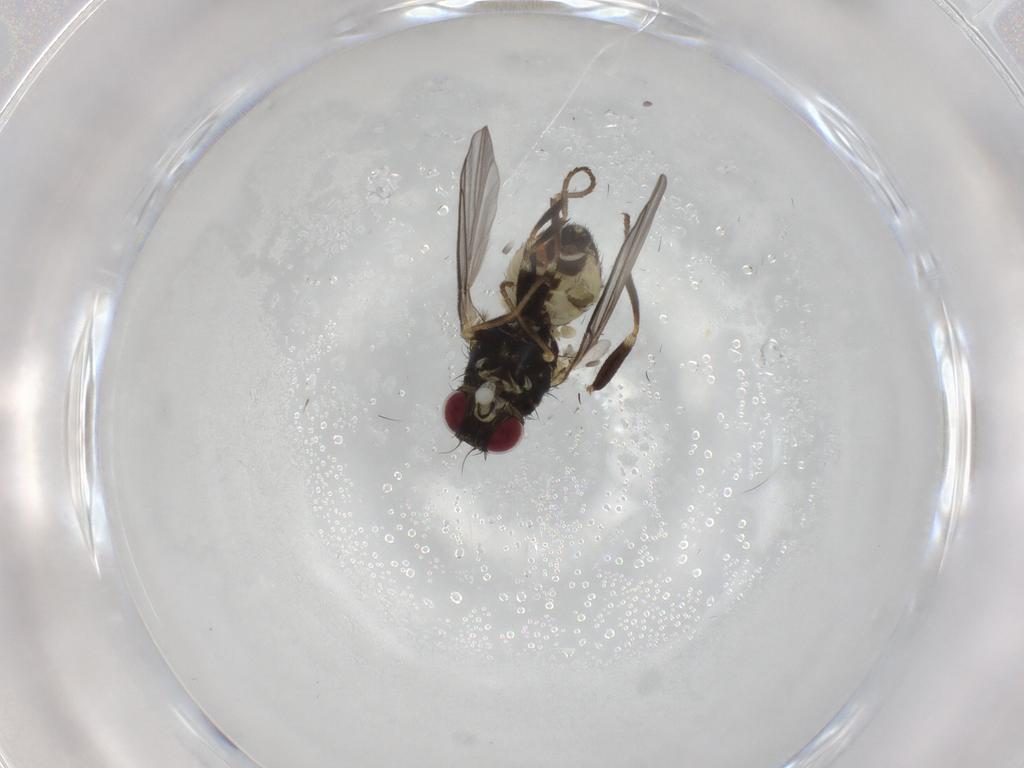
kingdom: Animalia
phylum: Arthropoda
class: Insecta
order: Diptera
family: Agromyzidae
